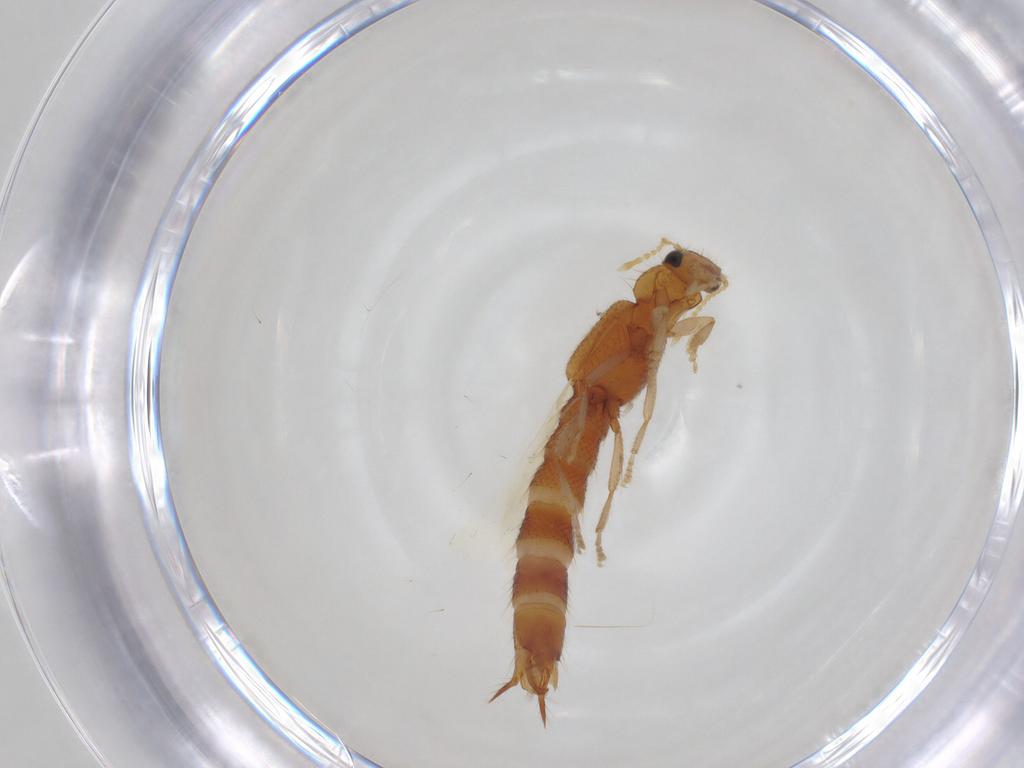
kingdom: Animalia
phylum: Arthropoda
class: Insecta
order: Coleoptera
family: Staphylinidae
